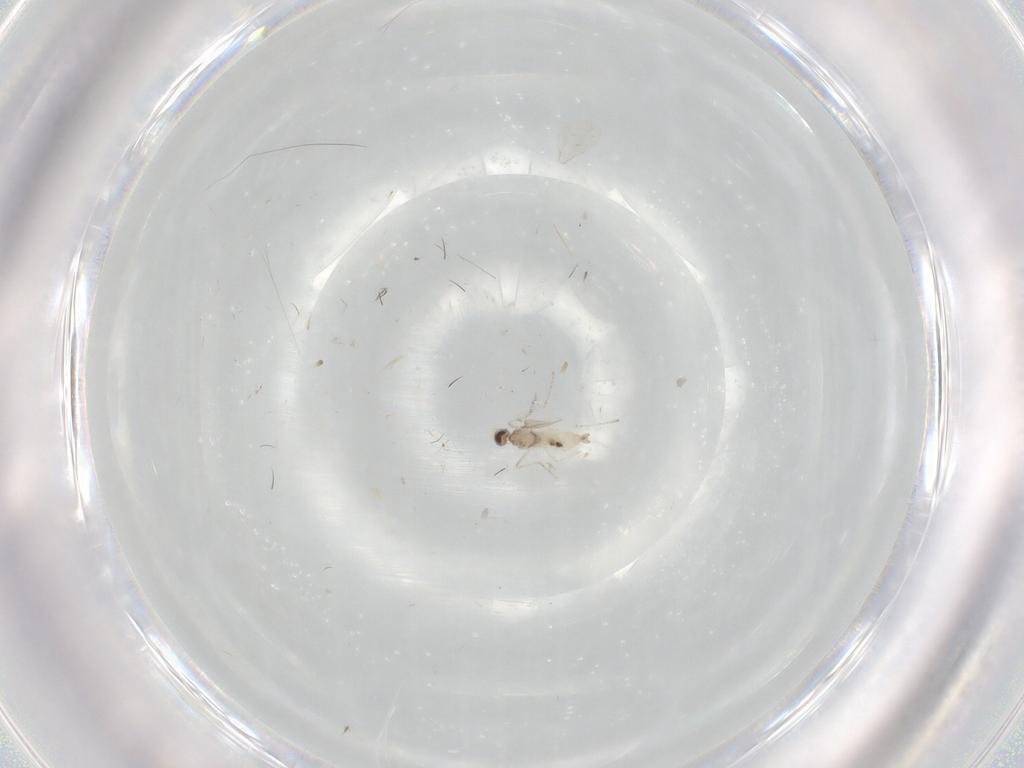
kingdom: Animalia
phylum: Arthropoda
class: Insecta
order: Diptera
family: Cecidomyiidae
